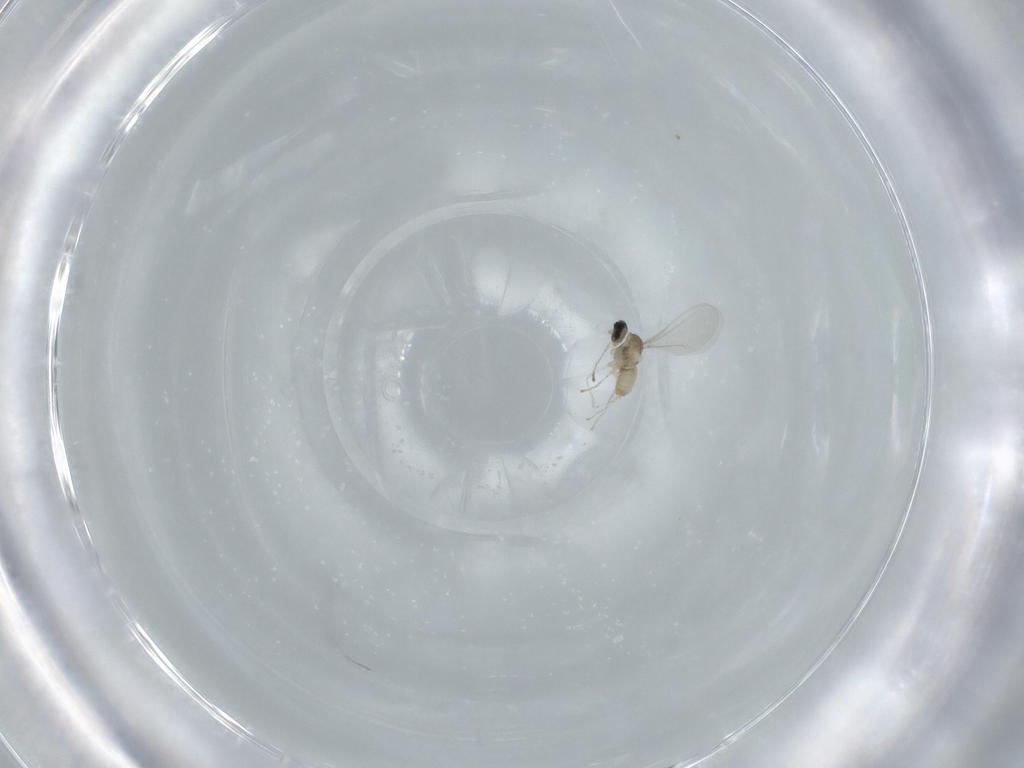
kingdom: Animalia
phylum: Arthropoda
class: Insecta
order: Diptera
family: Cecidomyiidae
